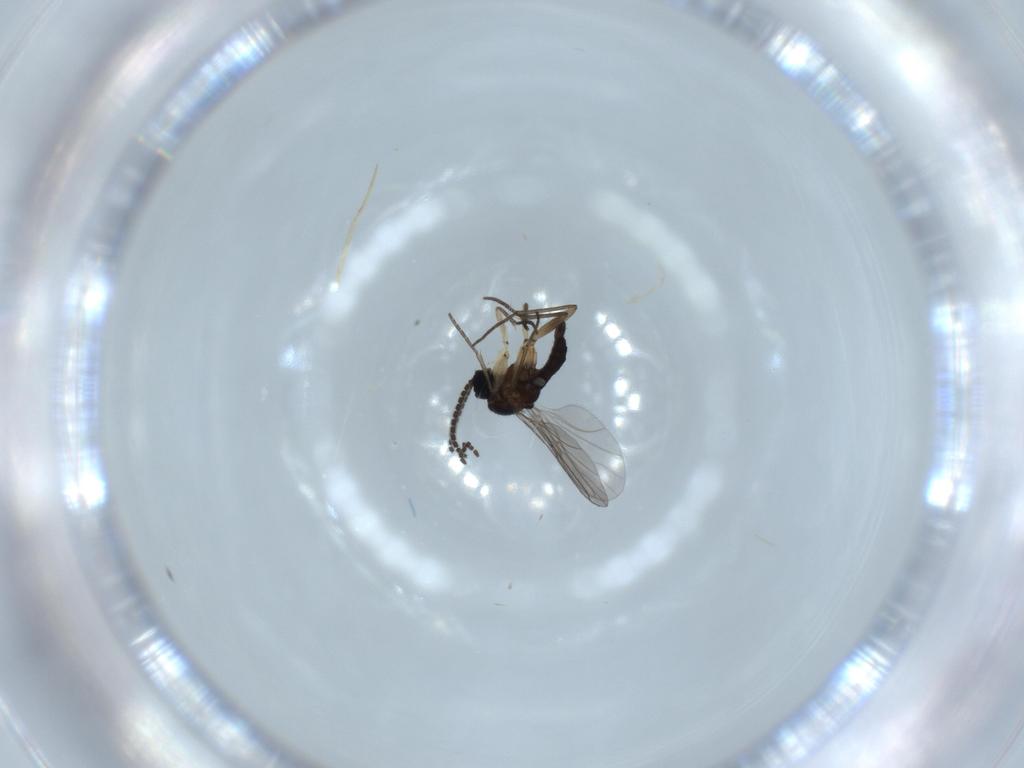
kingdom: Animalia
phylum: Arthropoda
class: Insecta
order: Diptera
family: Sciaridae
